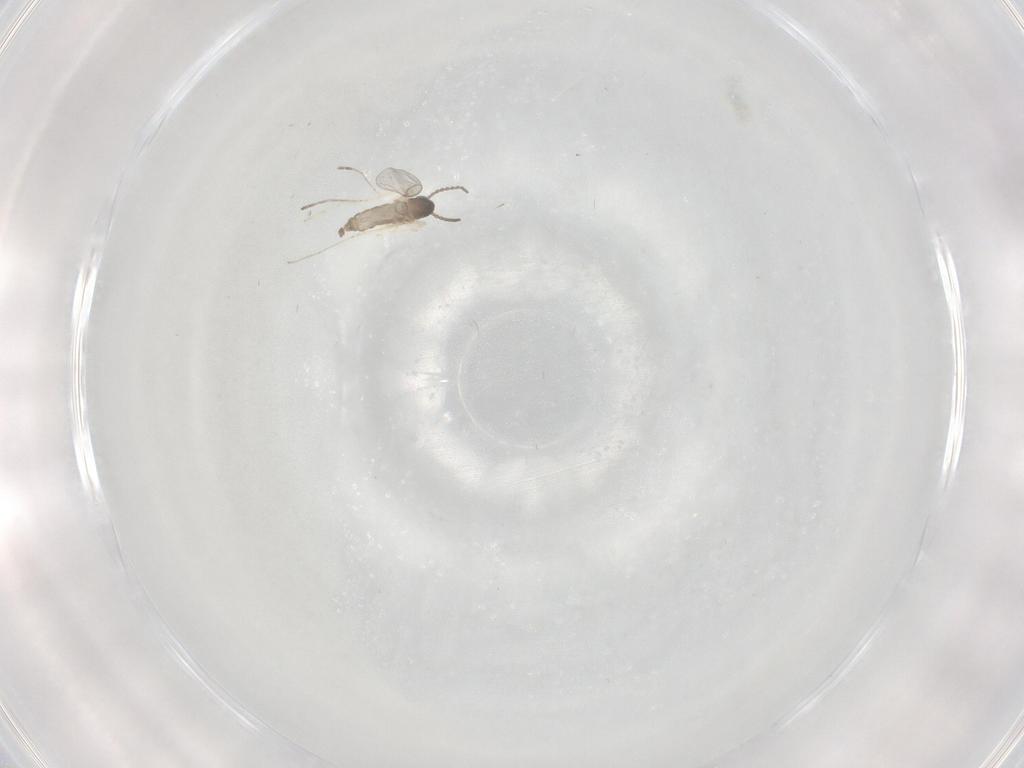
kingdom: Animalia
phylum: Arthropoda
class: Insecta
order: Diptera
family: Cecidomyiidae
